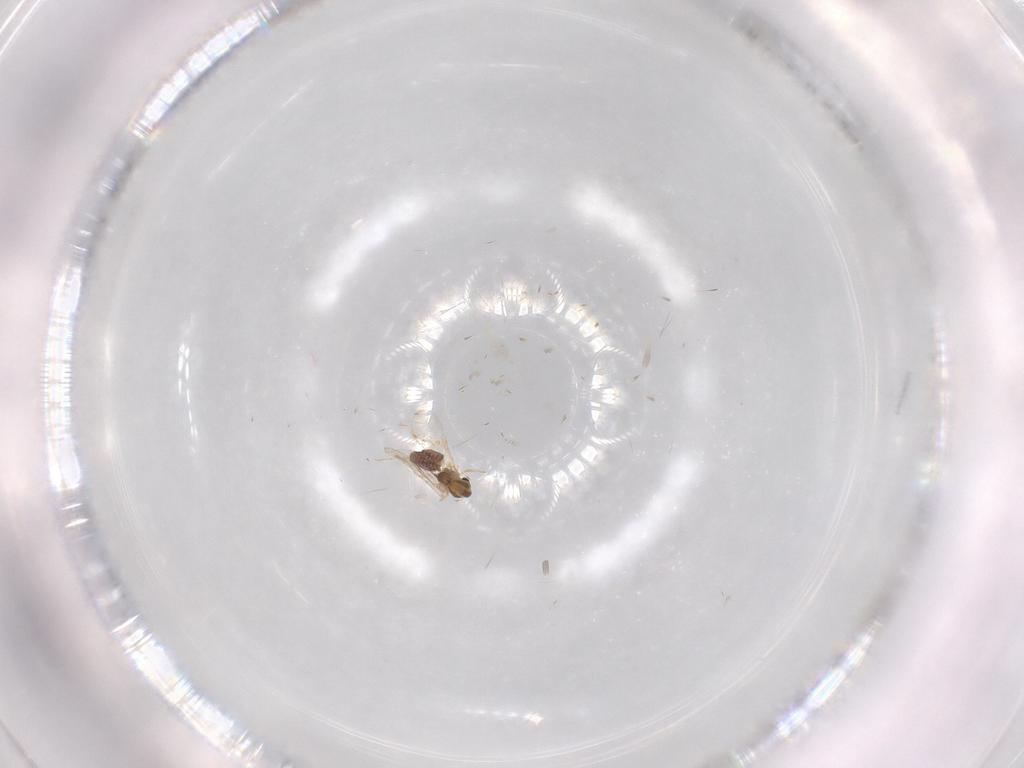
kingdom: Animalia
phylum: Arthropoda
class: Insecta
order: Diptera
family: Chironomidae
